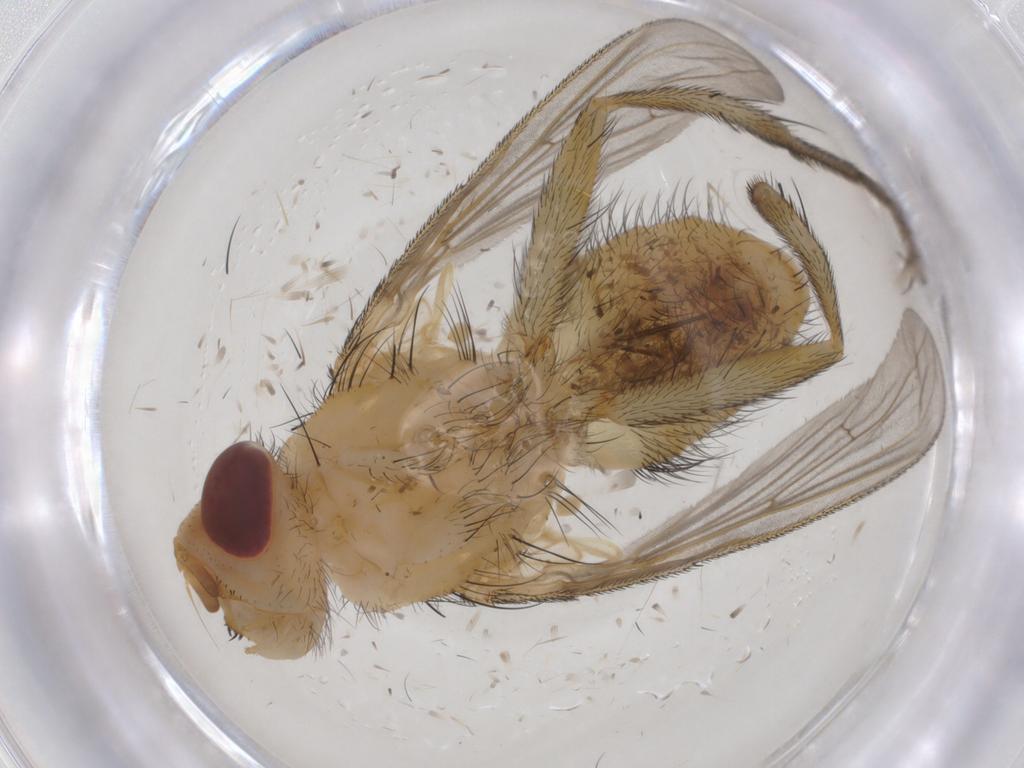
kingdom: Animalia
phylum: Arthropoda
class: Insecta
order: Diptera
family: Tachinidae
